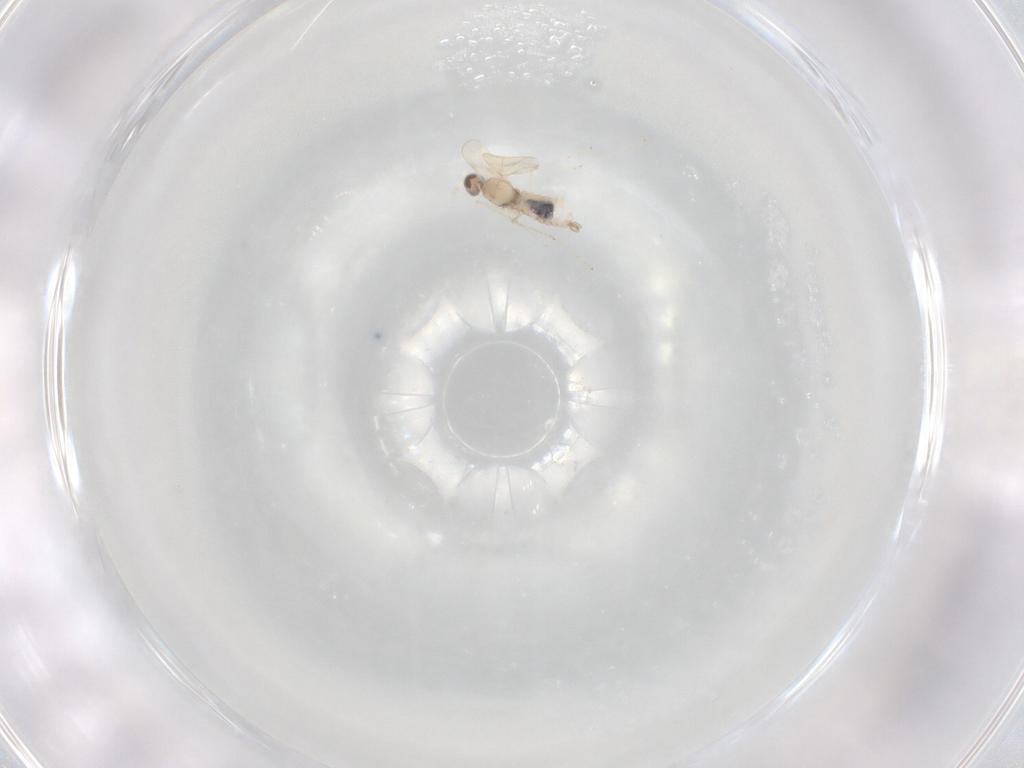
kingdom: Animalia
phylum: Arthropoda
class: Insecta
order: Diptera
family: Cecidomyiidae
